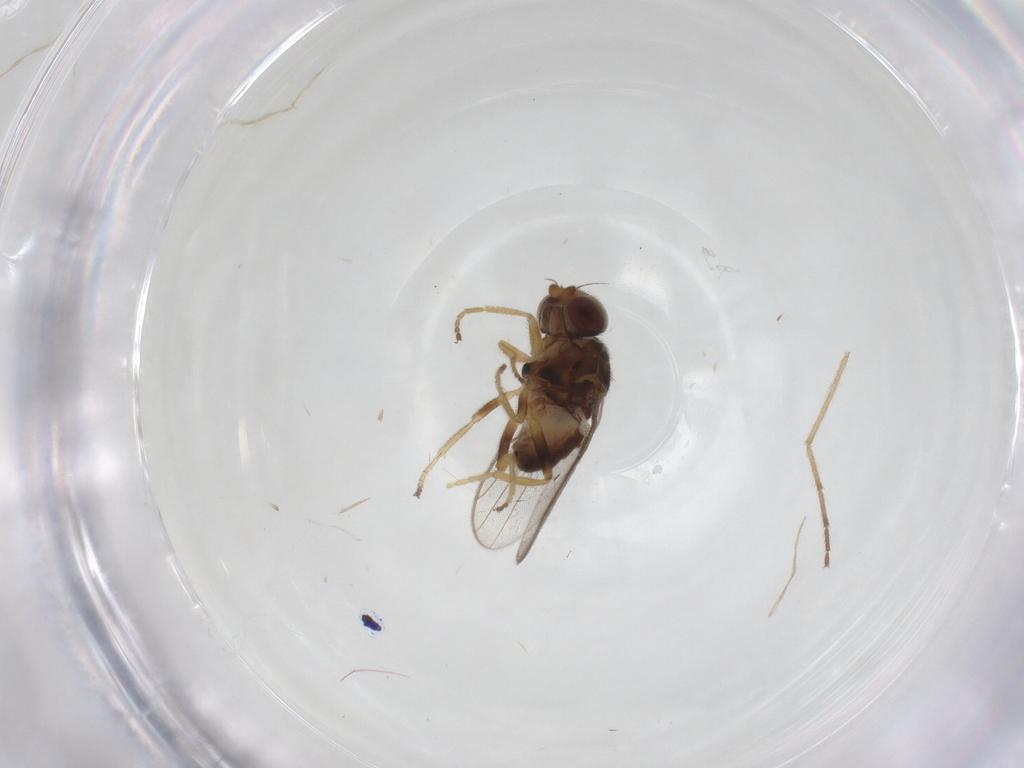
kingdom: Animalia
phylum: Arthropoda
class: Insecta
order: Diptera
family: Chloropidae
